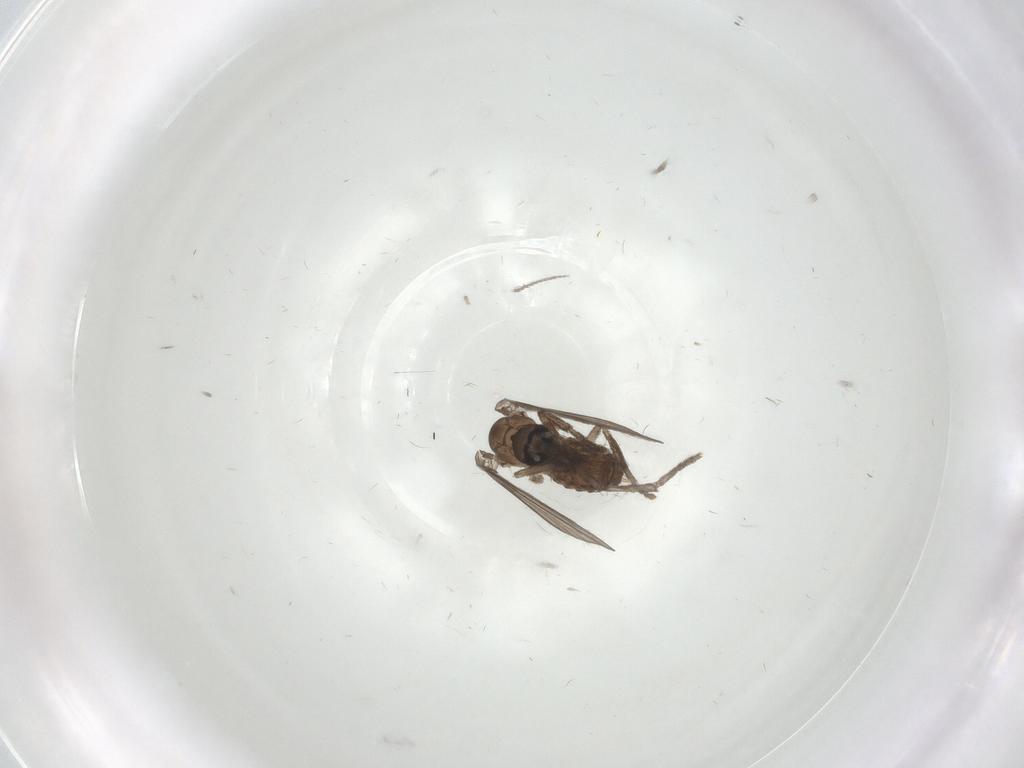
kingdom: Animalia
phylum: Arthropoda
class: Insecta
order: Diptera
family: Psychodidae
